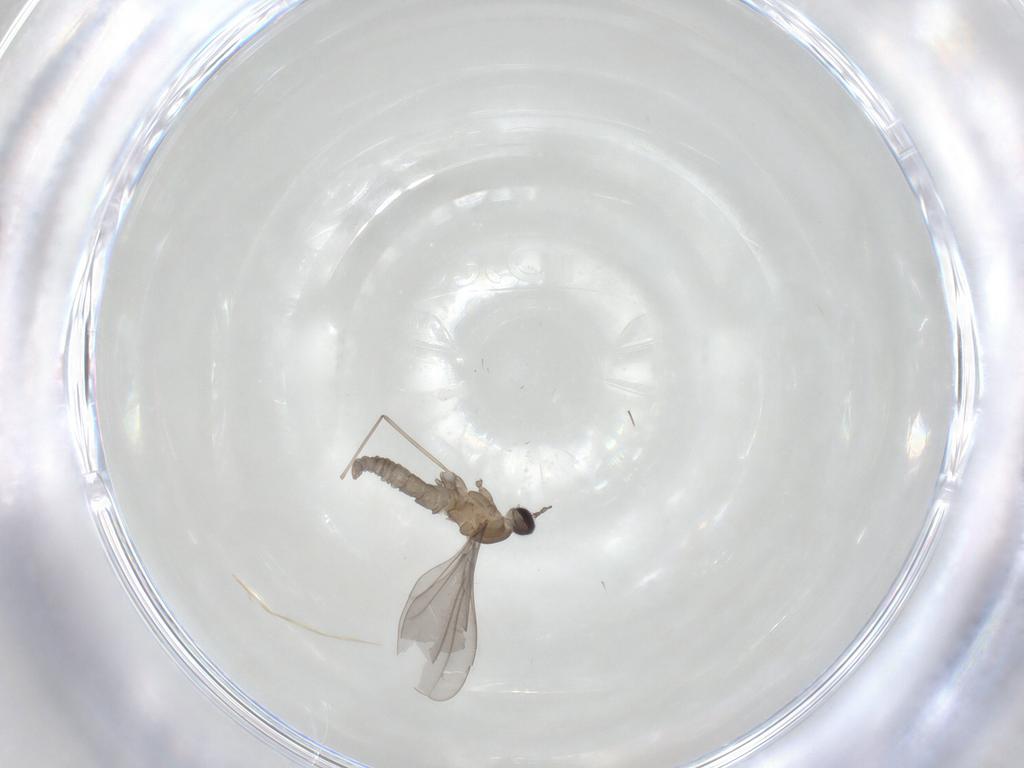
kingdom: Animalia
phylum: Arthropoda
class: Insecta
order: Diptera
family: Cecidomyiidae
